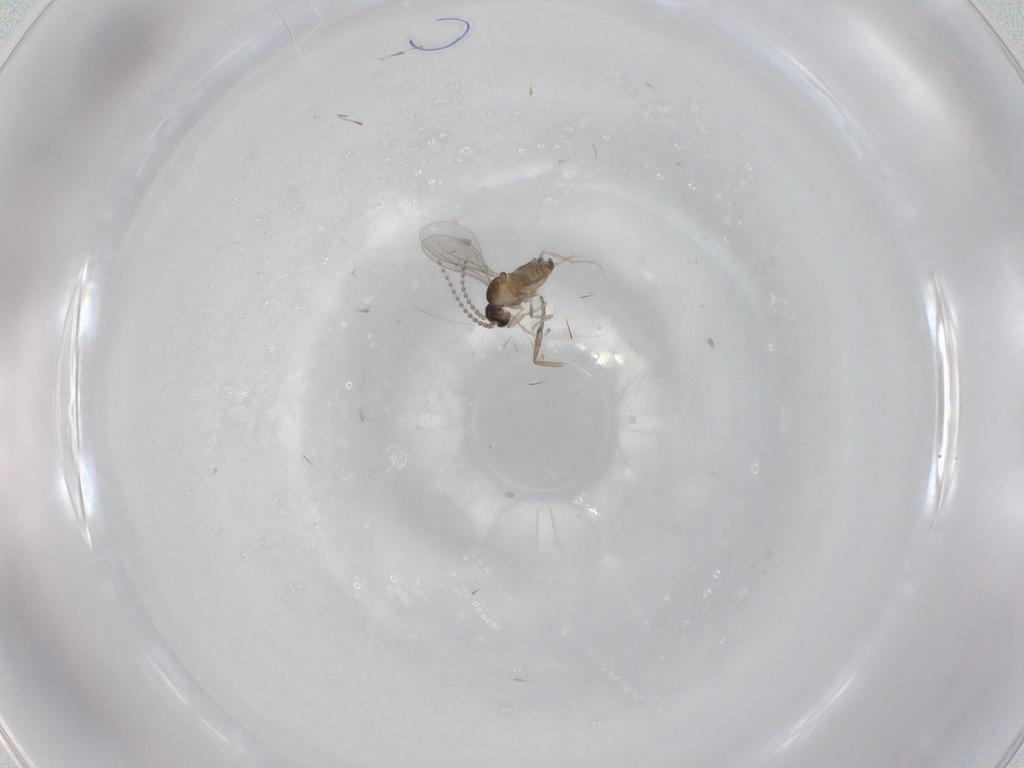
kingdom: Animalia
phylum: Arthropoda
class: Insecta
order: Diptera
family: Cecidomyiidae
